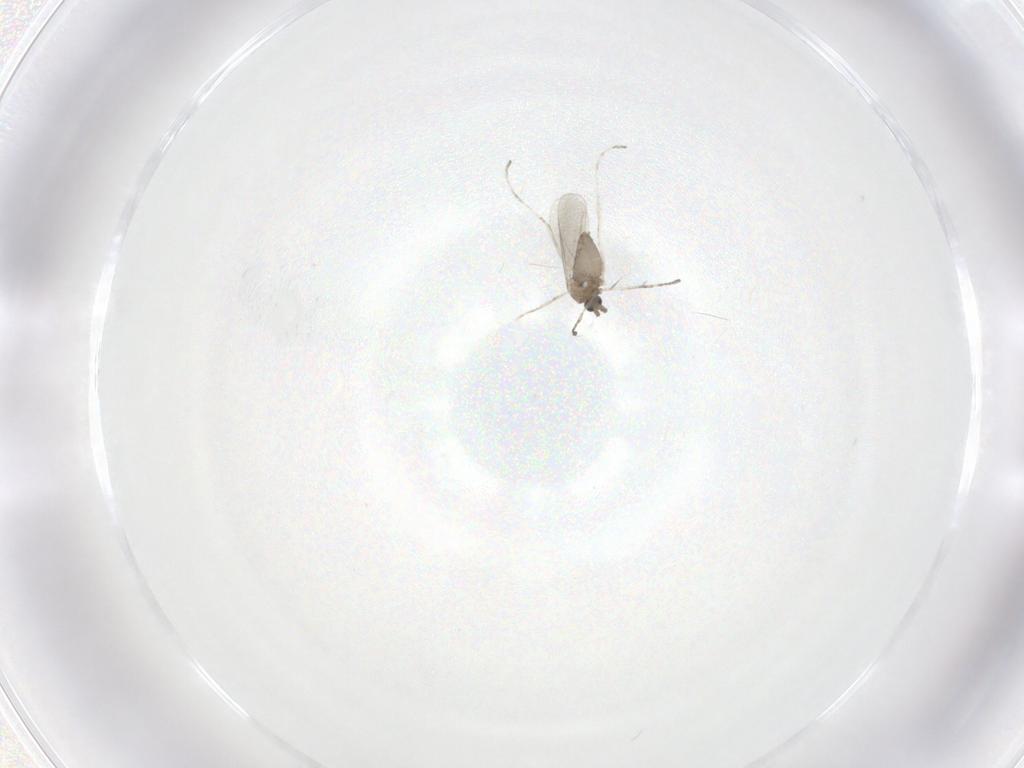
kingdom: Animalia
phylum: Arthropoda
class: Insecta
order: Diptera
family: Cecidomyiidae
